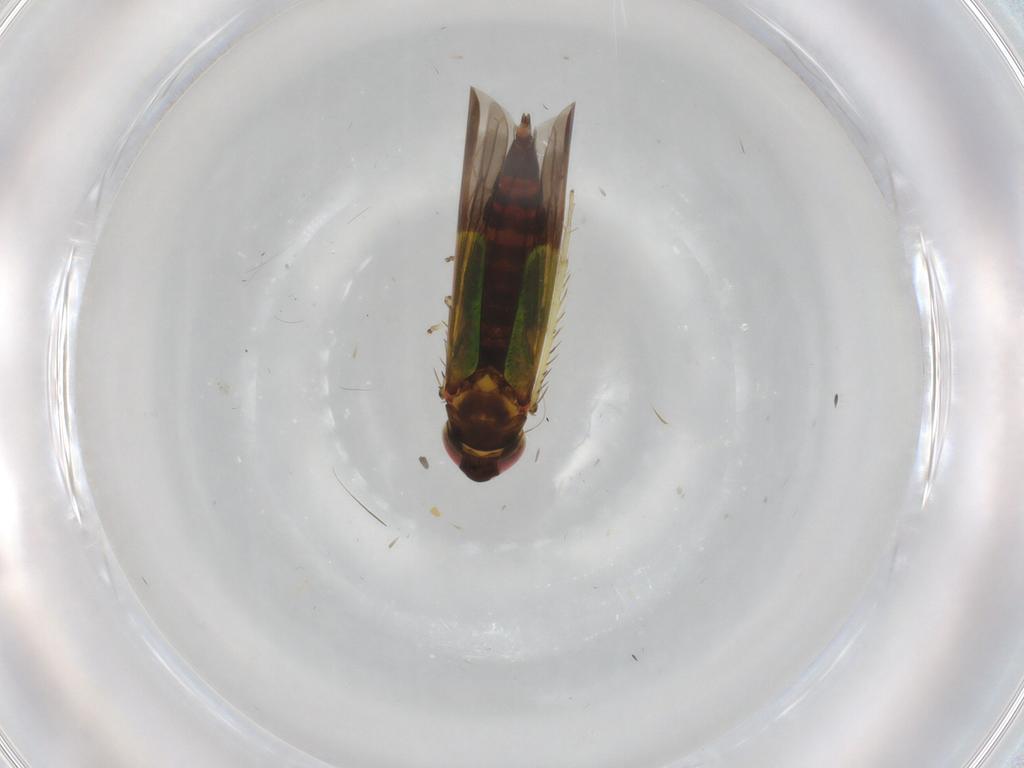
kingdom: Animalia
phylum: Arthropoda
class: Insecta
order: Hemiptera
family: Cicadellidae
